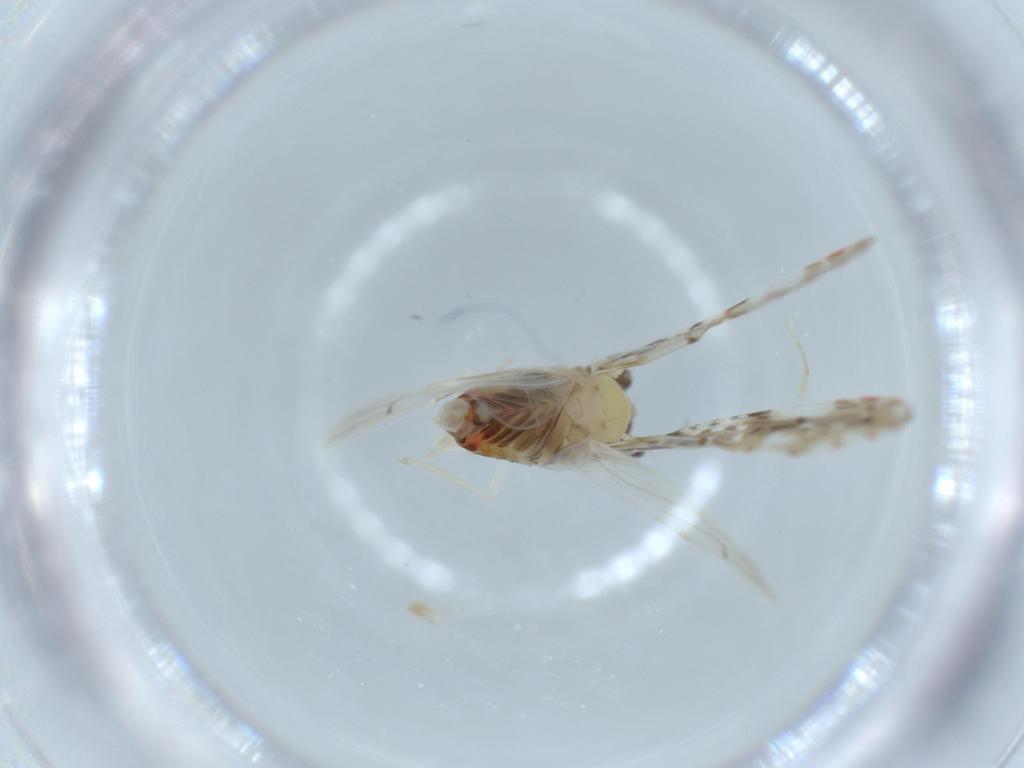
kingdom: Animalia
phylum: Arthropoda
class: Insecta
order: Hemiptera
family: Derbidae
